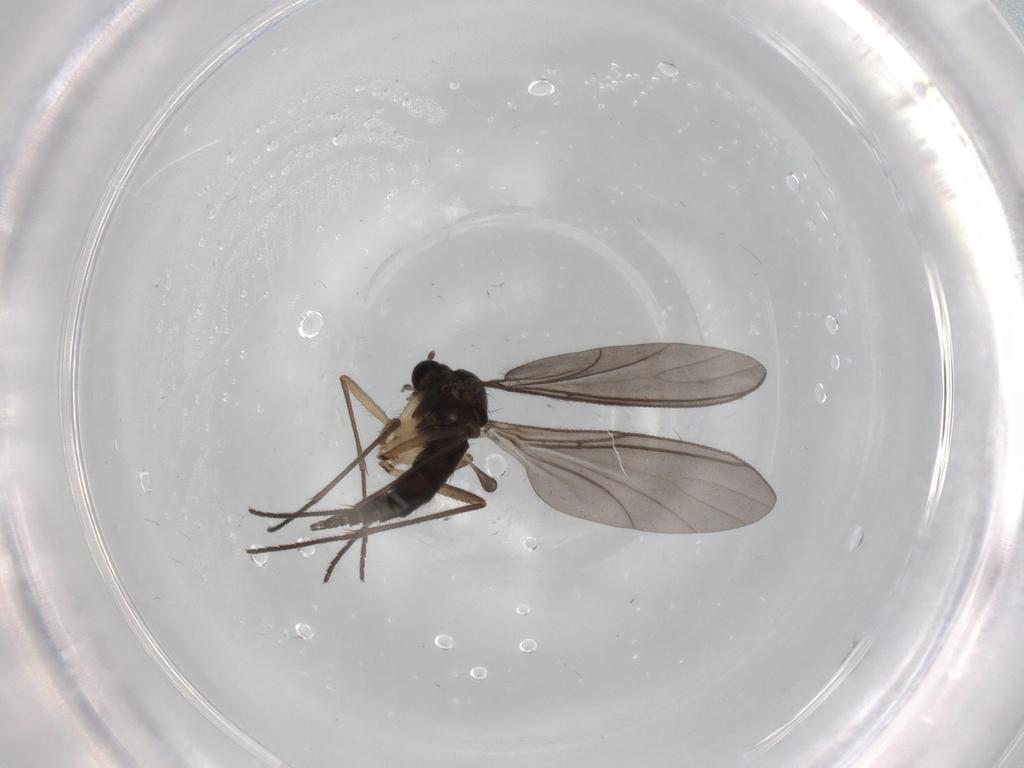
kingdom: Animalia
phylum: Arthropoda
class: Insecta
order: Diptera
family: Sciaridae
